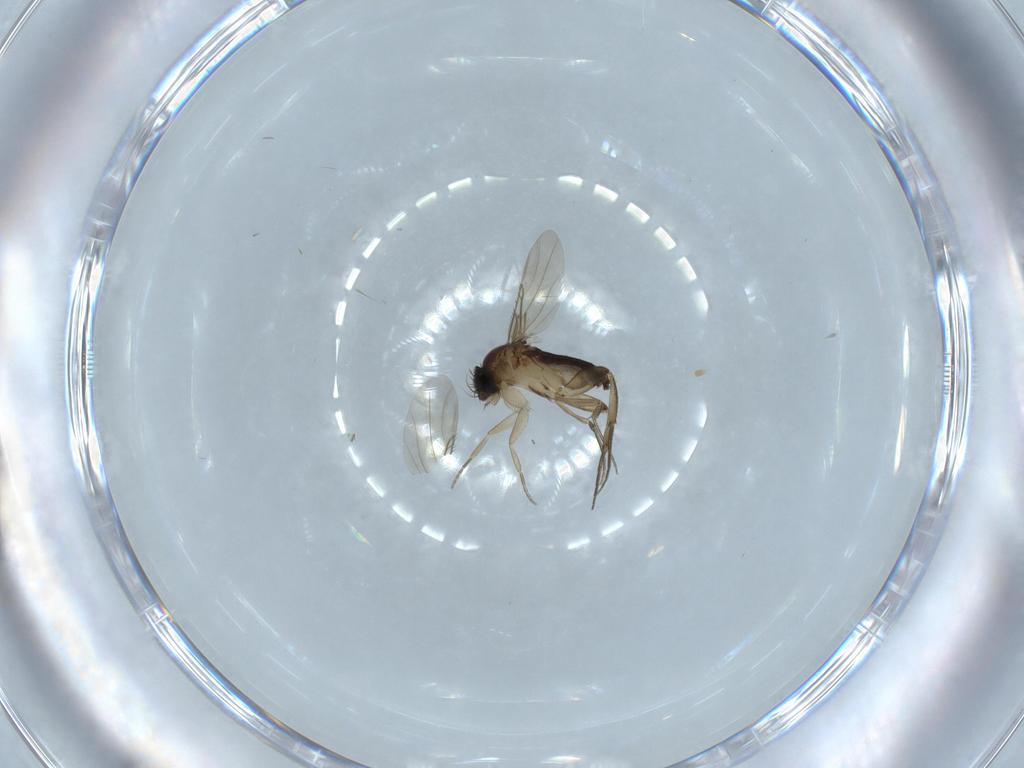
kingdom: Animalia
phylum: Arthropoda
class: Insecta
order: Diptera
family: Phoridae
